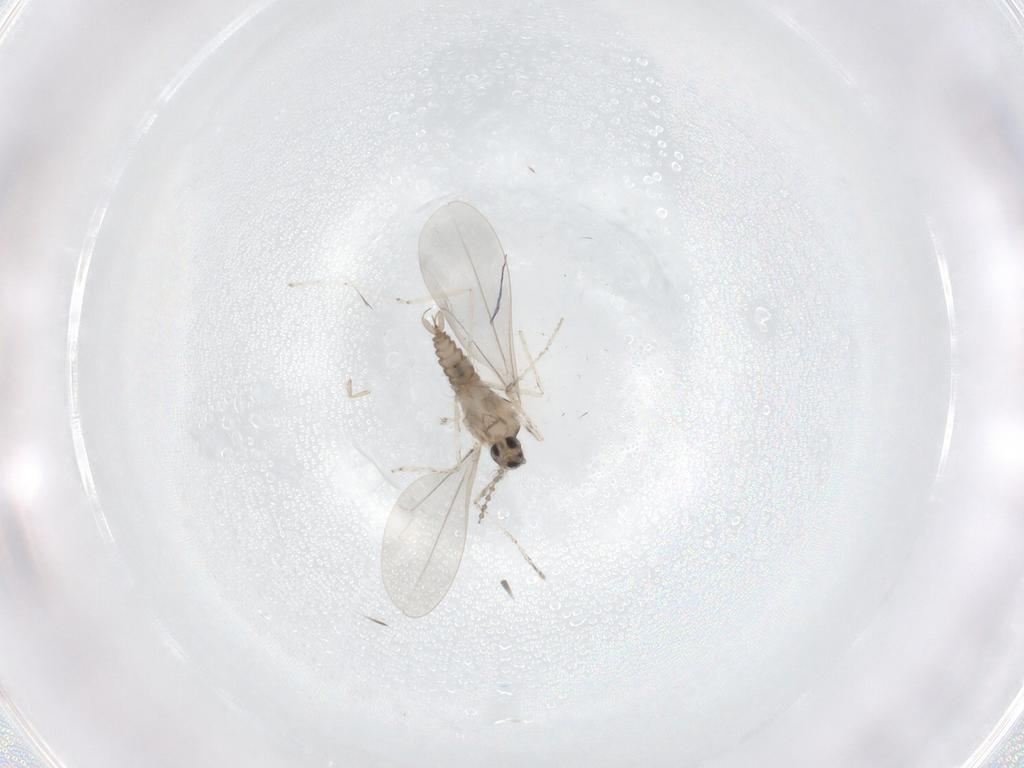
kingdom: Animalia
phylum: Arthropoda
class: Insecta
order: Diptera
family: Cecidomyiidae
